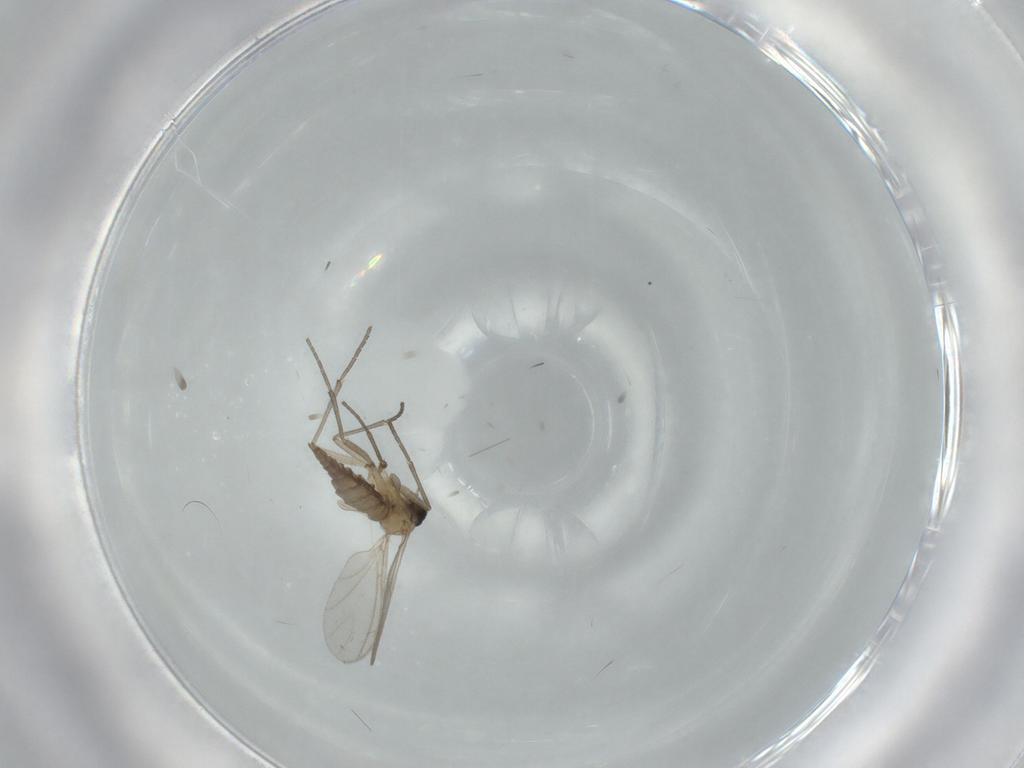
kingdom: Animalia
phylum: Arthropoda
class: Insecta
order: Diptera
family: Sciaridae
